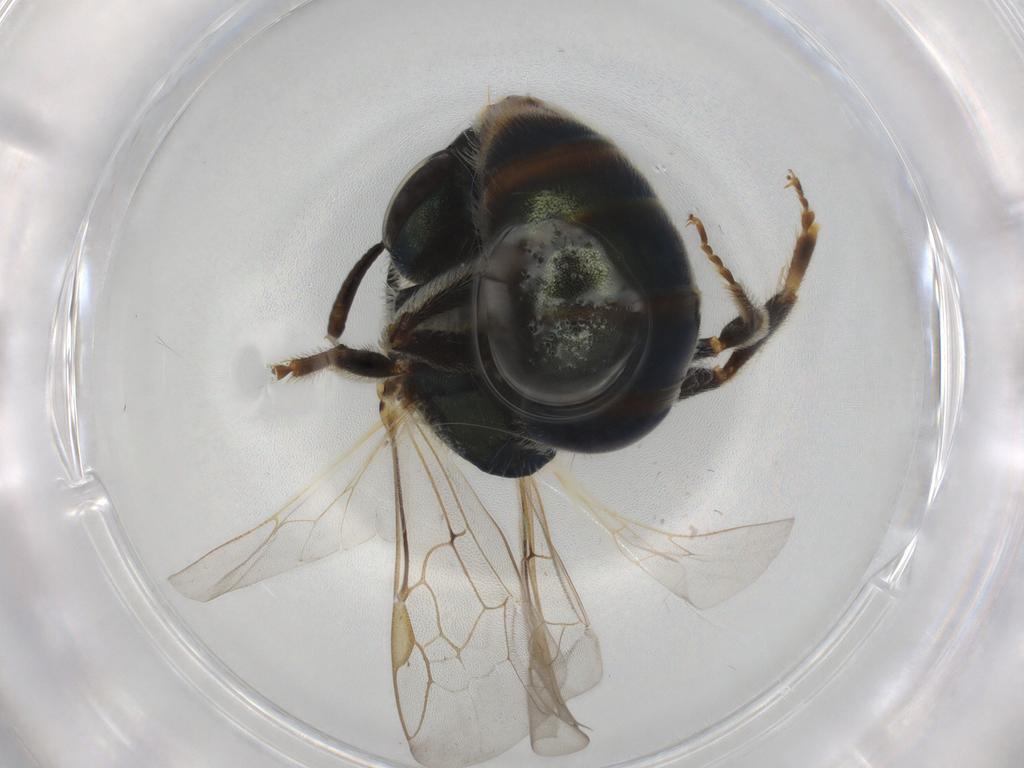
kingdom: Animalia
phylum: Arthropoda
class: Insecta
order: Hymenoptera
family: Halictidae
